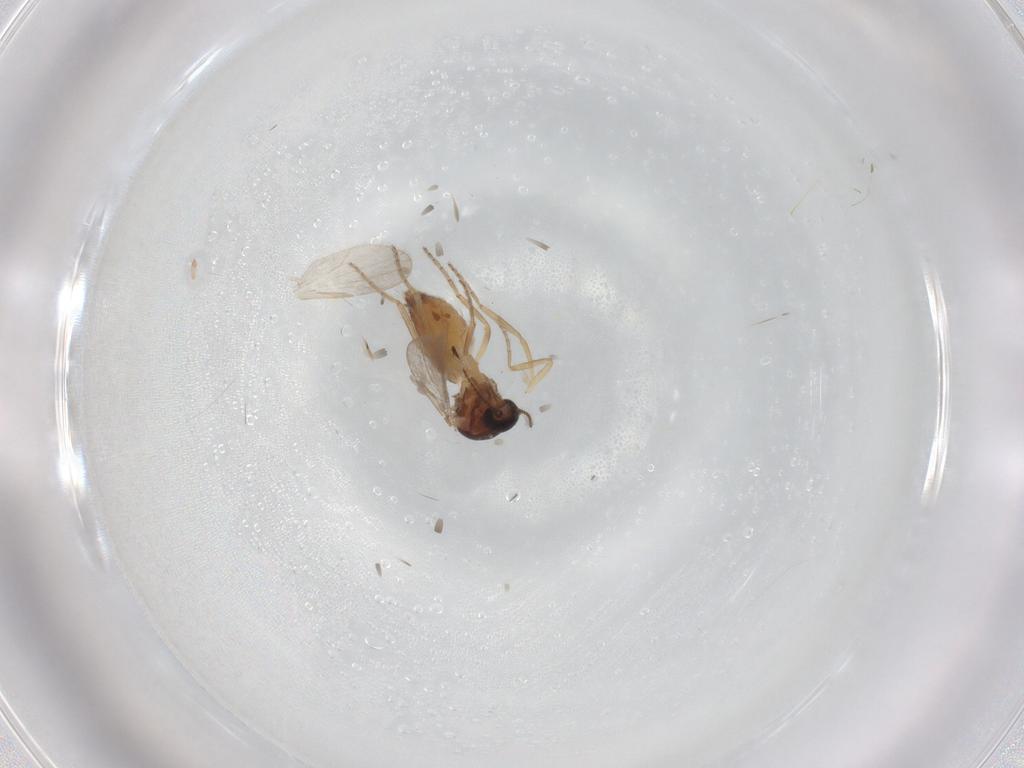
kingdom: Animalia
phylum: Arthropoda
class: Insecta
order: Diptera
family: Ceratopogonidae
